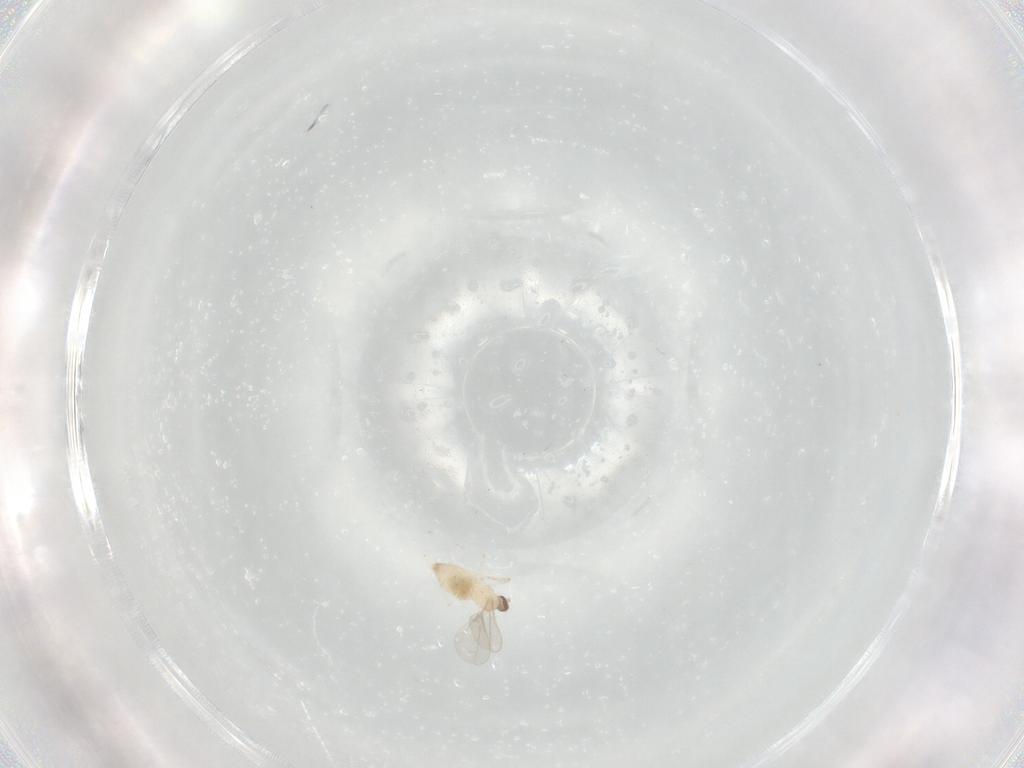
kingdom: Animalia
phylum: Arthropoda
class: Insecta
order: Diptera
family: Cecidomyiidae
